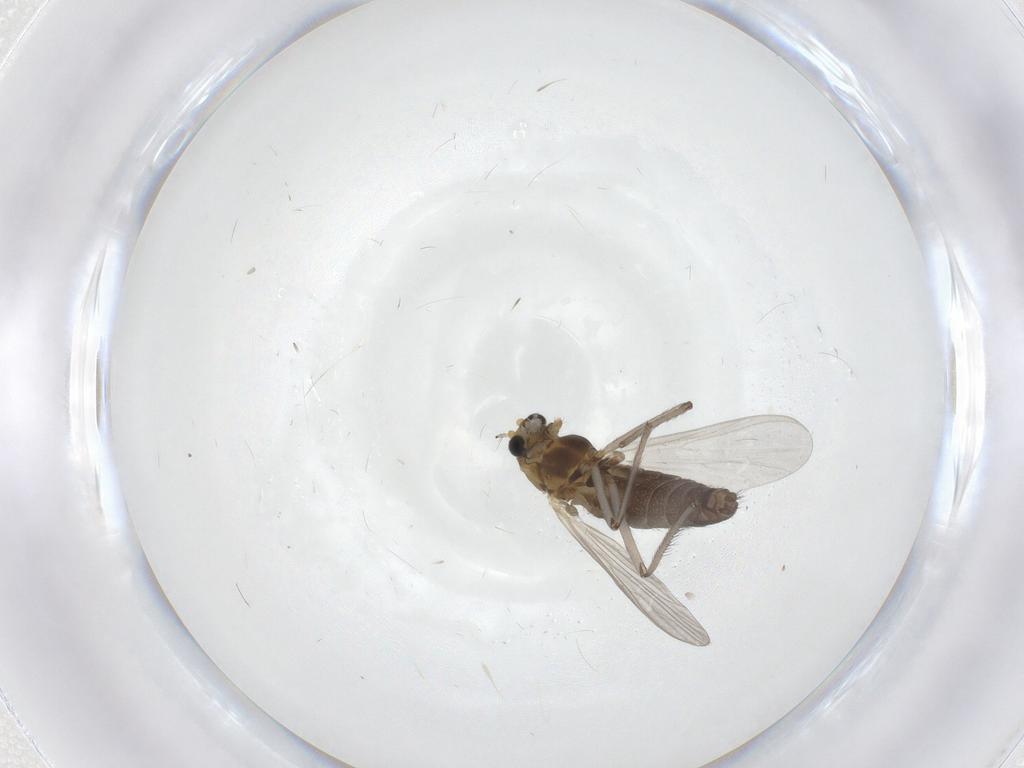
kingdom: Animalia
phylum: Arthropoda
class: Insecta
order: Diptera
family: Chironomidae
